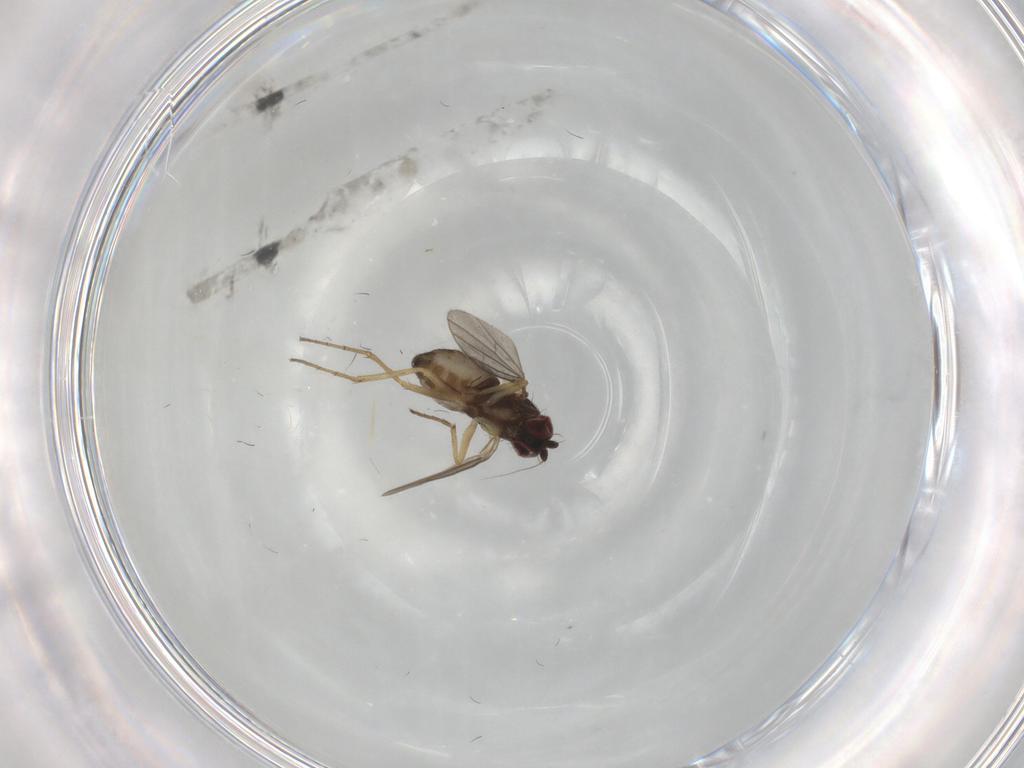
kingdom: Animalia
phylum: Arthropoda
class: Insecta
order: Diptera
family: Dolichopodidae
